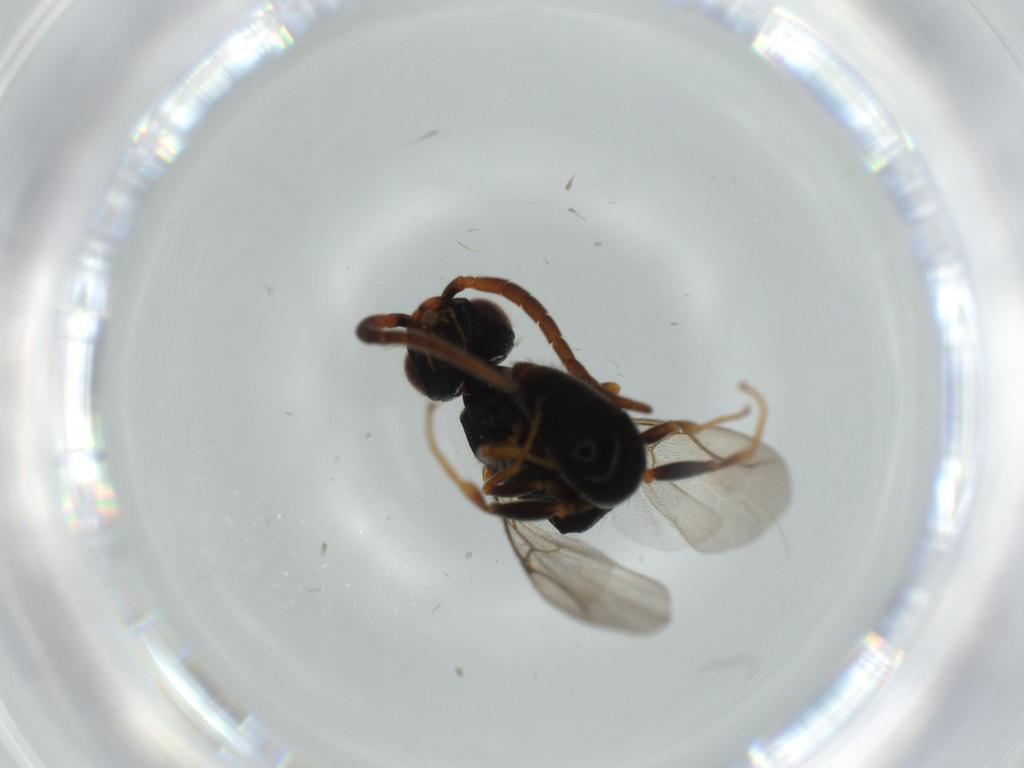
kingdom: Animalia
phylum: Arthropoda
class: Insecta
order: Hymenoptera
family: Bethylidae
